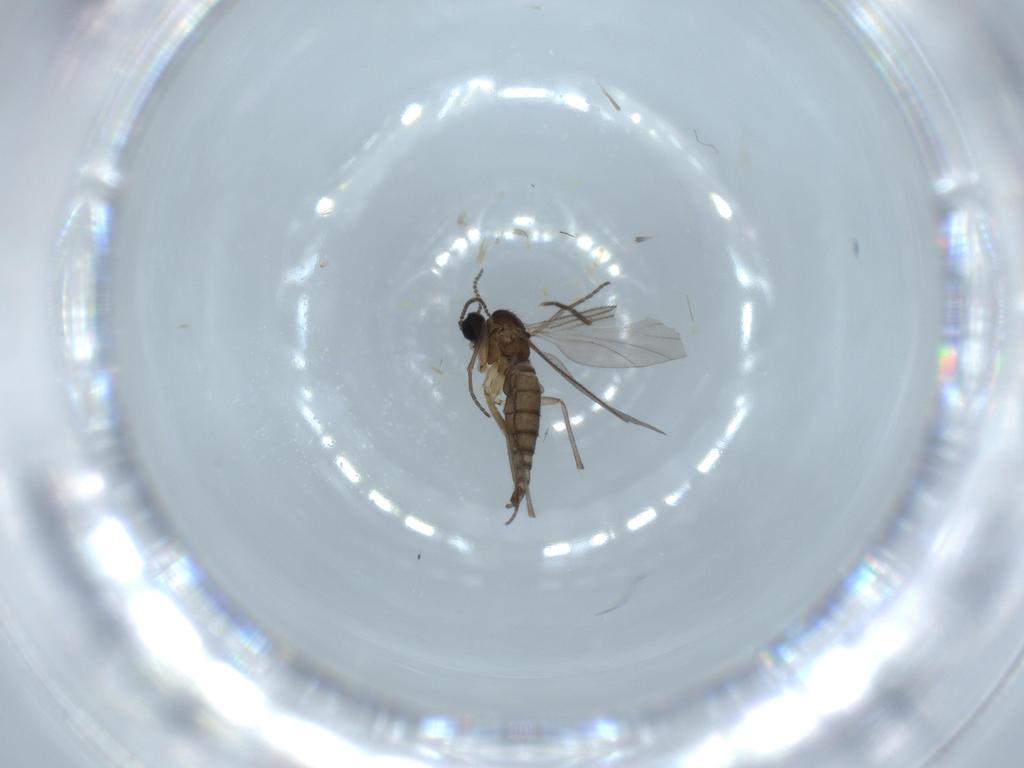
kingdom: Animalia
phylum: Arthropoda
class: Insecta
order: Diptera
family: Sciaridae
